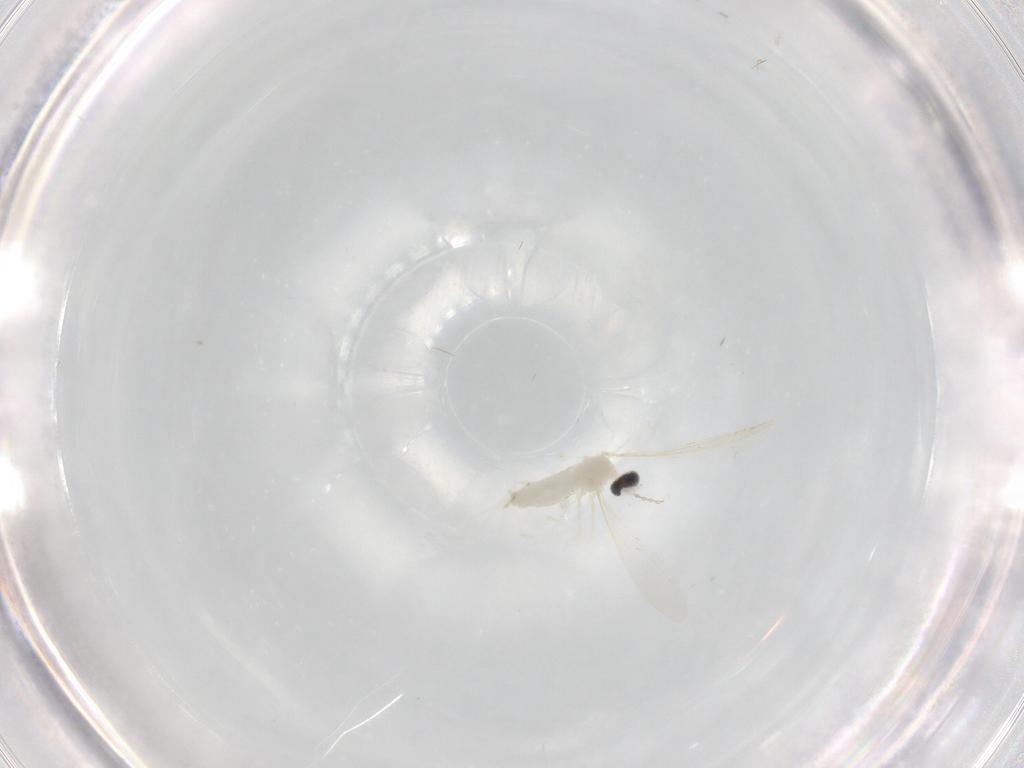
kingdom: Animalia
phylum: Arthropoda
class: Insecta
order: Diptera
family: Cecidomyiidae
